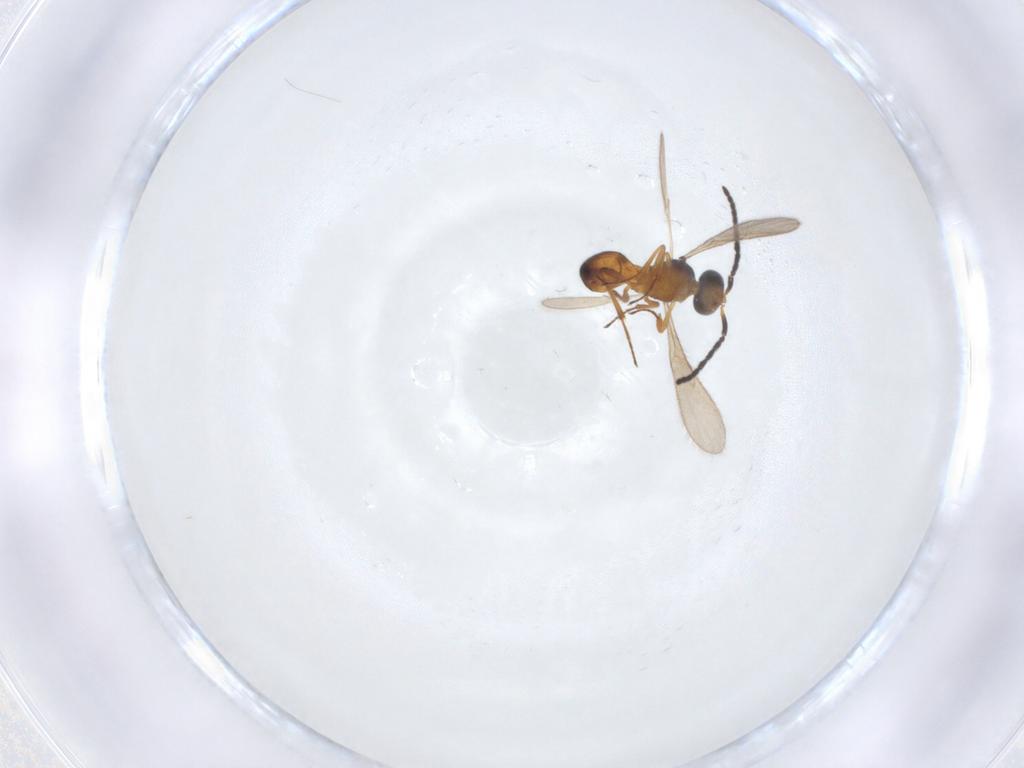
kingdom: Animalia
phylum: Arthropoda
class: Insecta
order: Hymenoptera
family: Scelionidae
